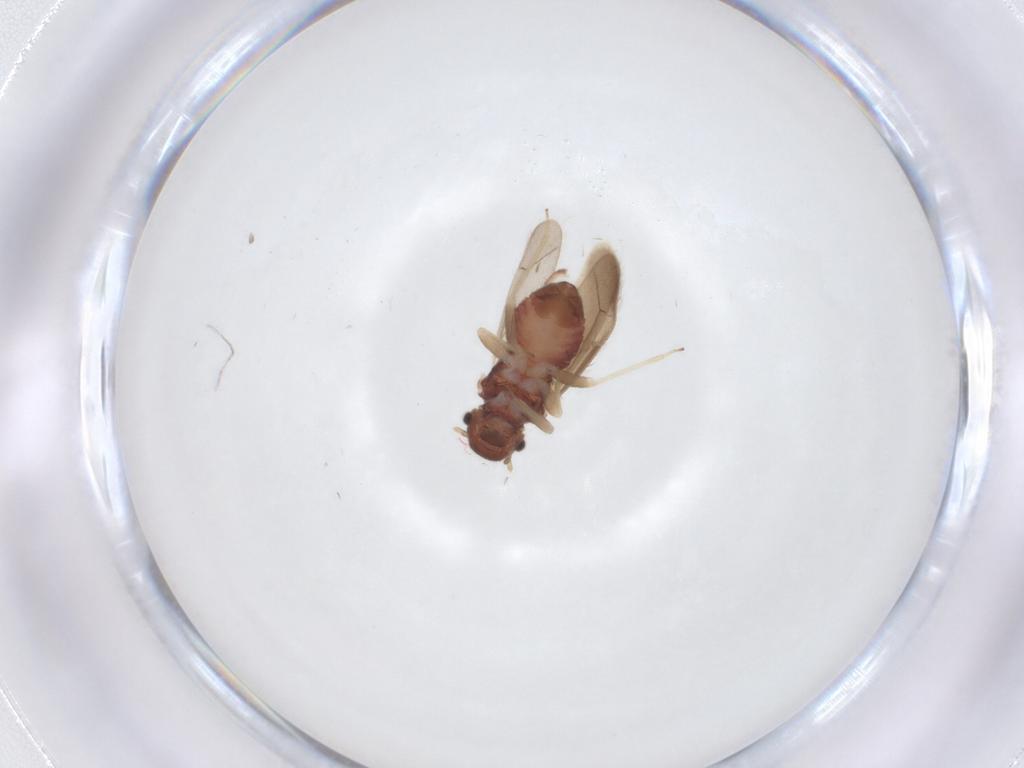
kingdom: Animalia
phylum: Arthropoda
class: Insecta
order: Psocodea
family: Archipsocidae
